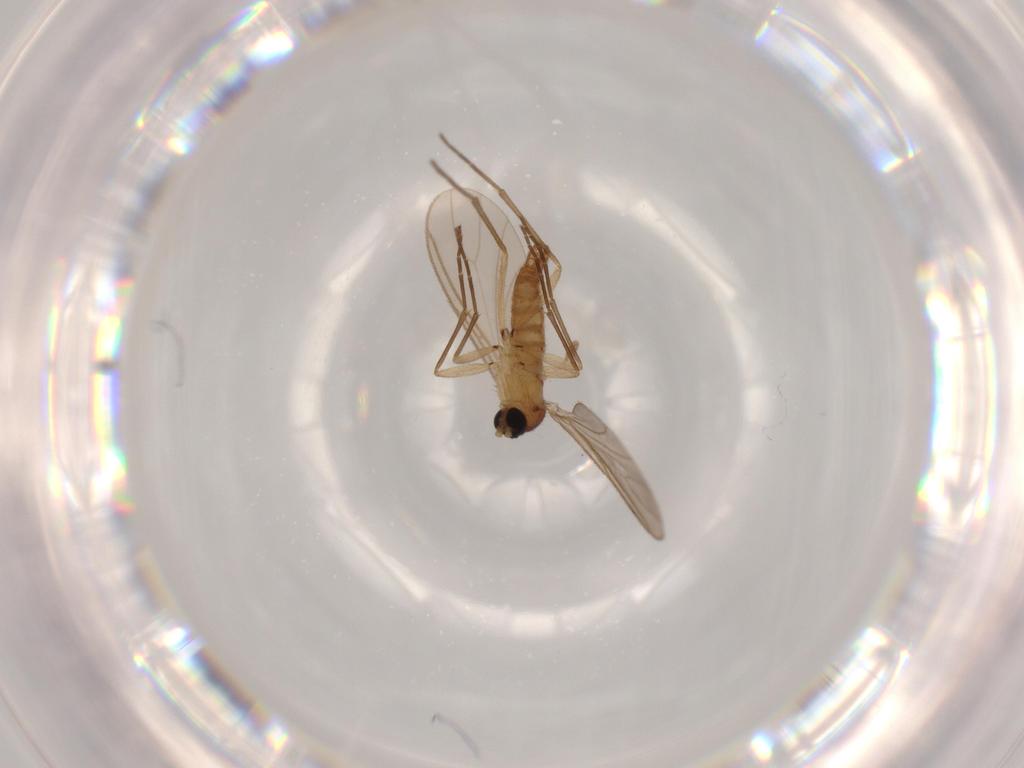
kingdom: Animalia
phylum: Arthropoda
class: Insecta
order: Diptera
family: Sciaridae
